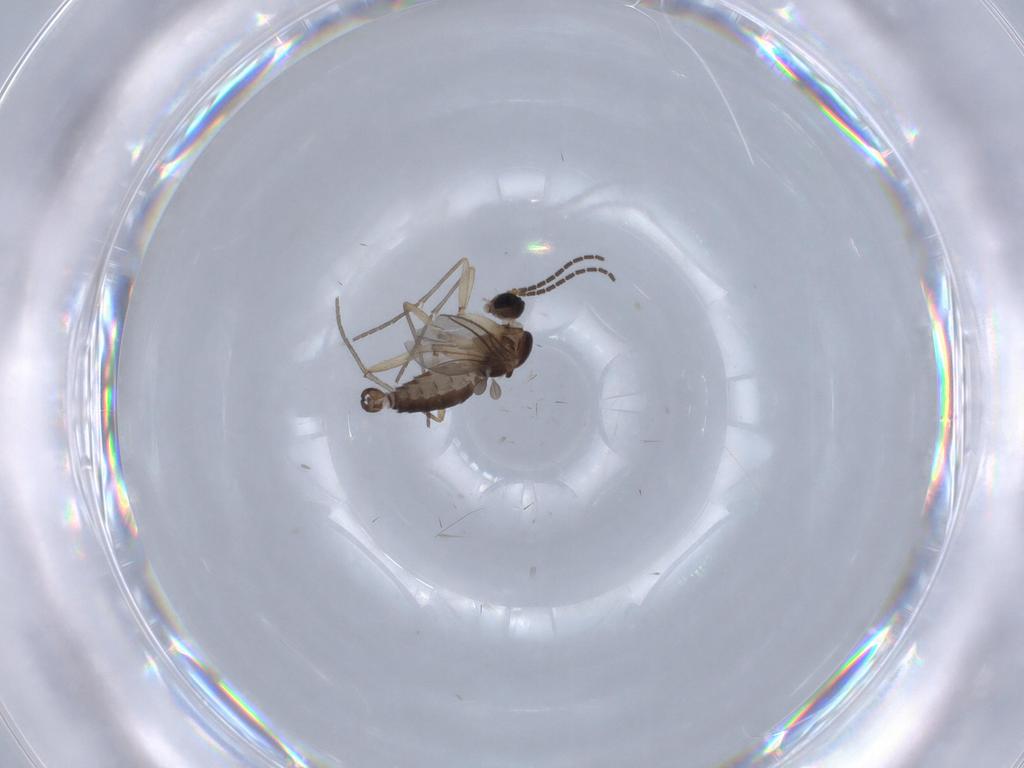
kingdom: Animalia
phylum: Arthropoda
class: Insecta
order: Diptera
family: Sciaridae
